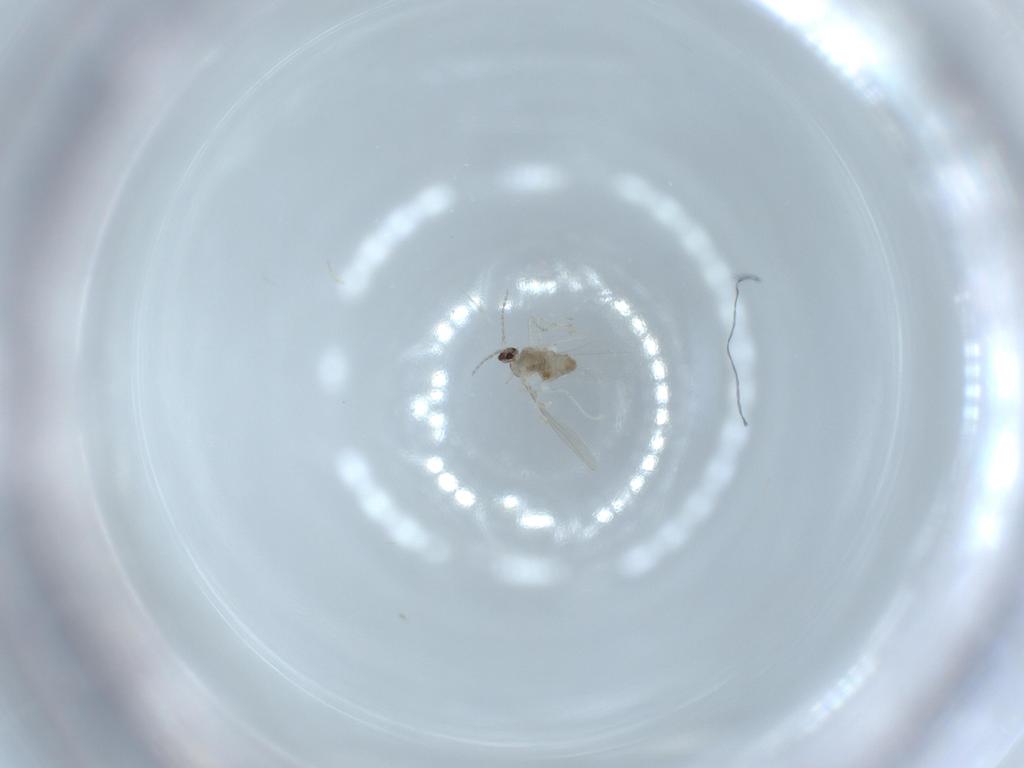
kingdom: Animalia
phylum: Arthropoda
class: Insecta
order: Diptera
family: Cecidomyiidae
